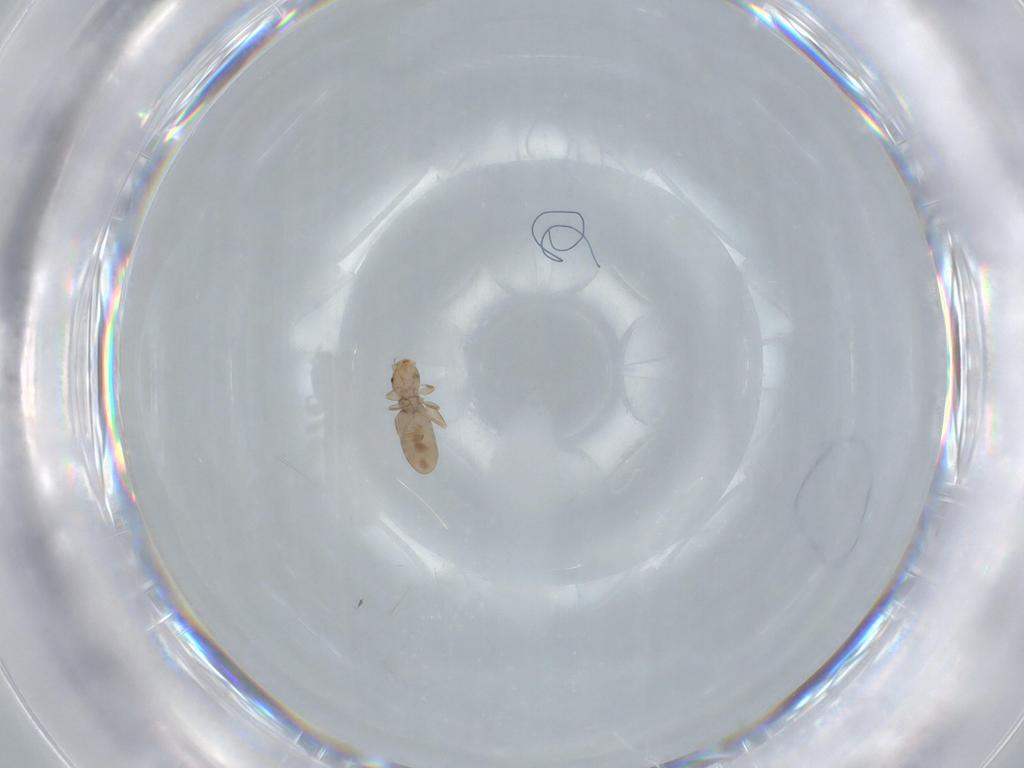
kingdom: Animalia
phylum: Arthropoda
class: Insecta
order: Psocodea
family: Liposcelididae
